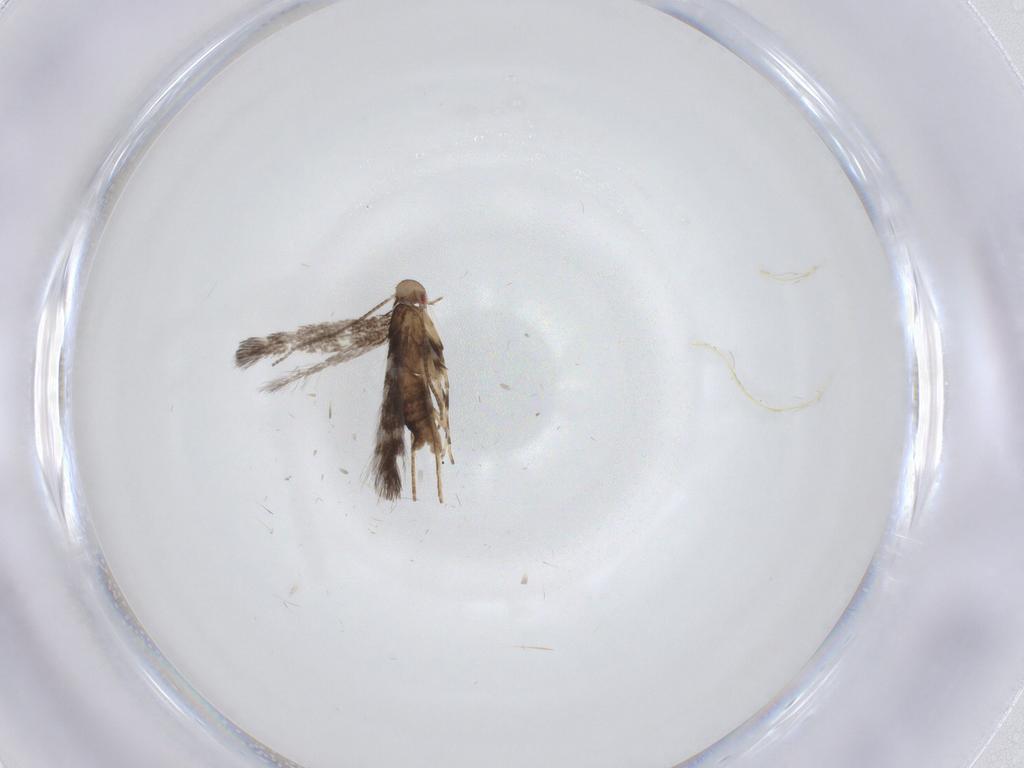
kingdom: Animalia
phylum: Arthropoda
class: Insecta
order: Lepidoptera
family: Gracillariidae
